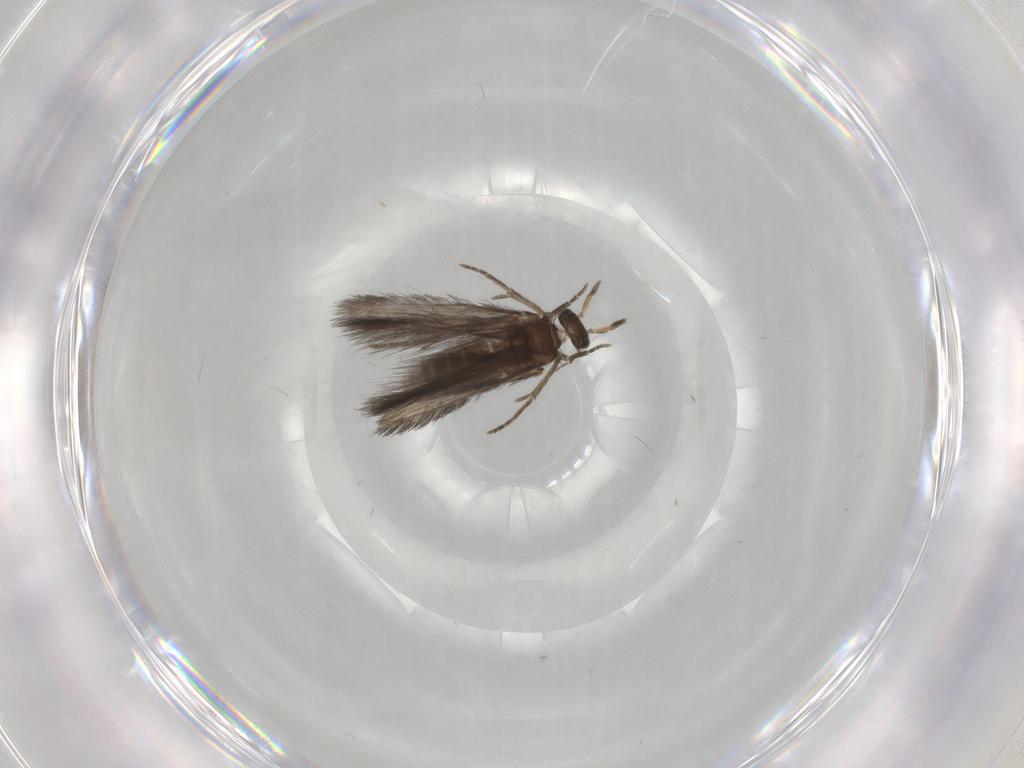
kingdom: Animalia
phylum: Arthropoda
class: Insecta
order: Trichoptera
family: Hydroptilidae
